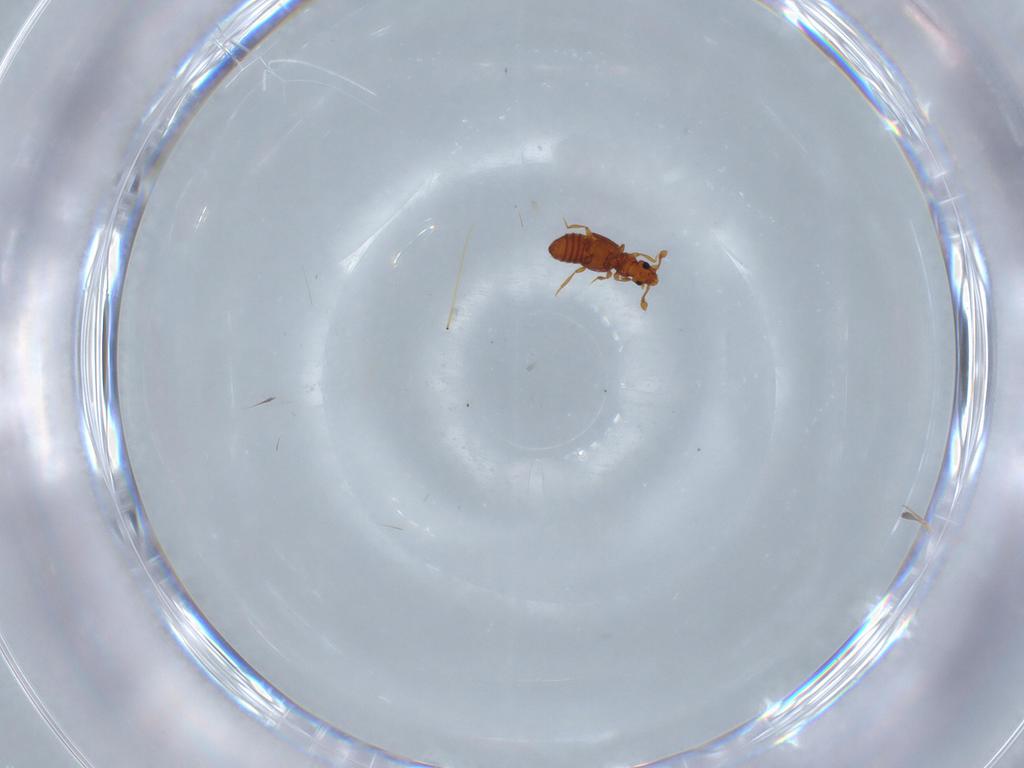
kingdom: Animalia
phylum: Arthropoda
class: Insecta
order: Coleoptera
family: Staphylinidae
